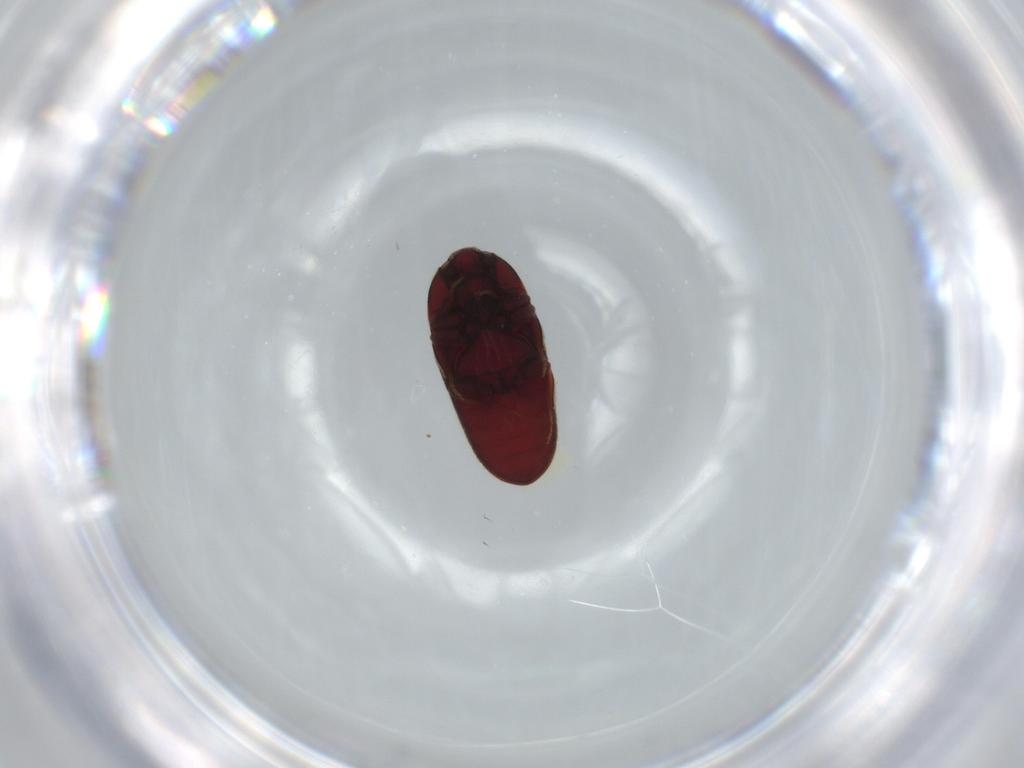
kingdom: Animalia
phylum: Arthropoda
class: Insecta
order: Coleoptera
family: Throscidae
